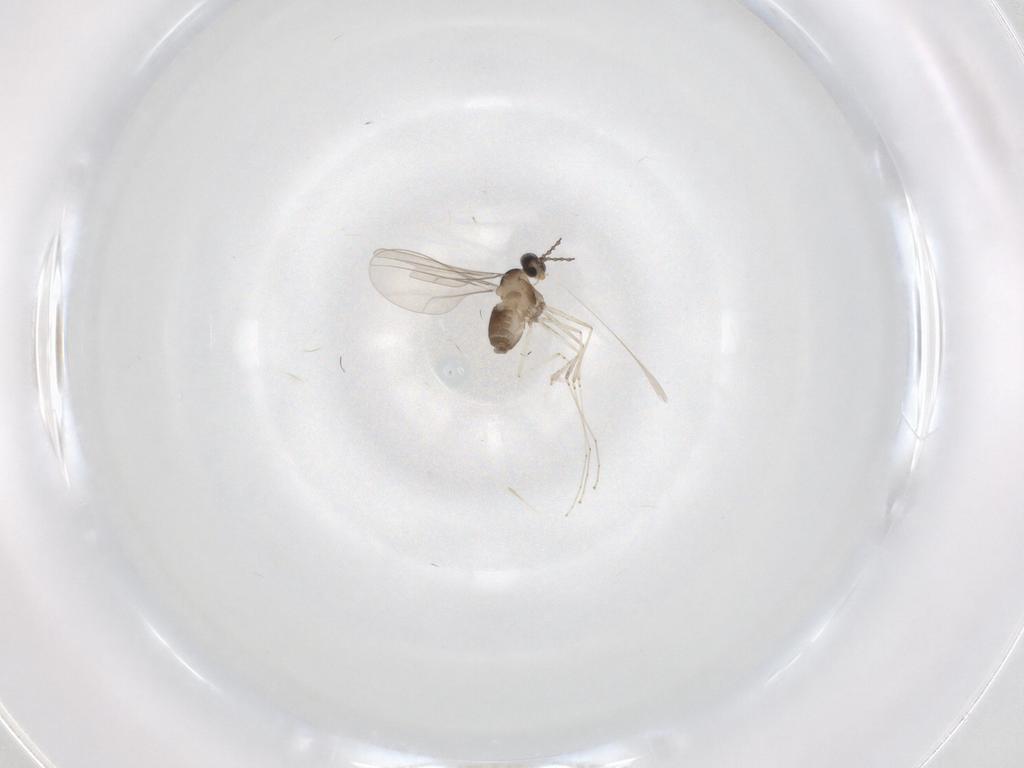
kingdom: Animalia
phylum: Arthropoda
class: Insecta
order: Diptera
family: Cecidomyiidae
